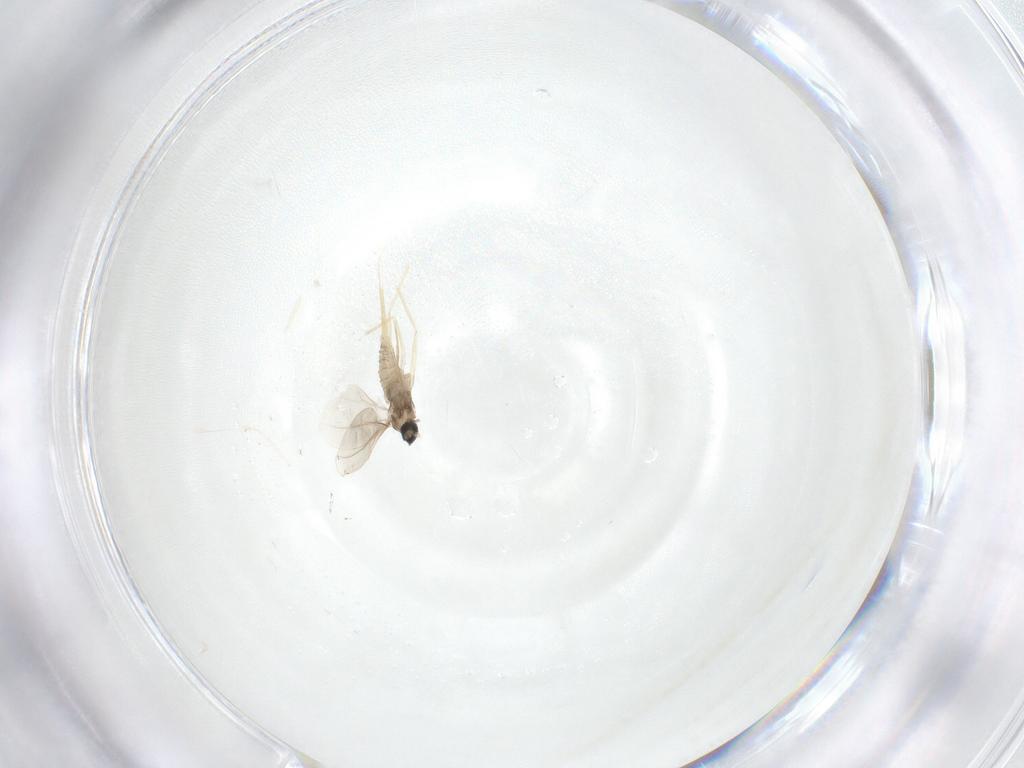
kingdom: Animalia
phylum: Arthropoda
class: Insecta
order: Diptera
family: Cecidomyiidae
